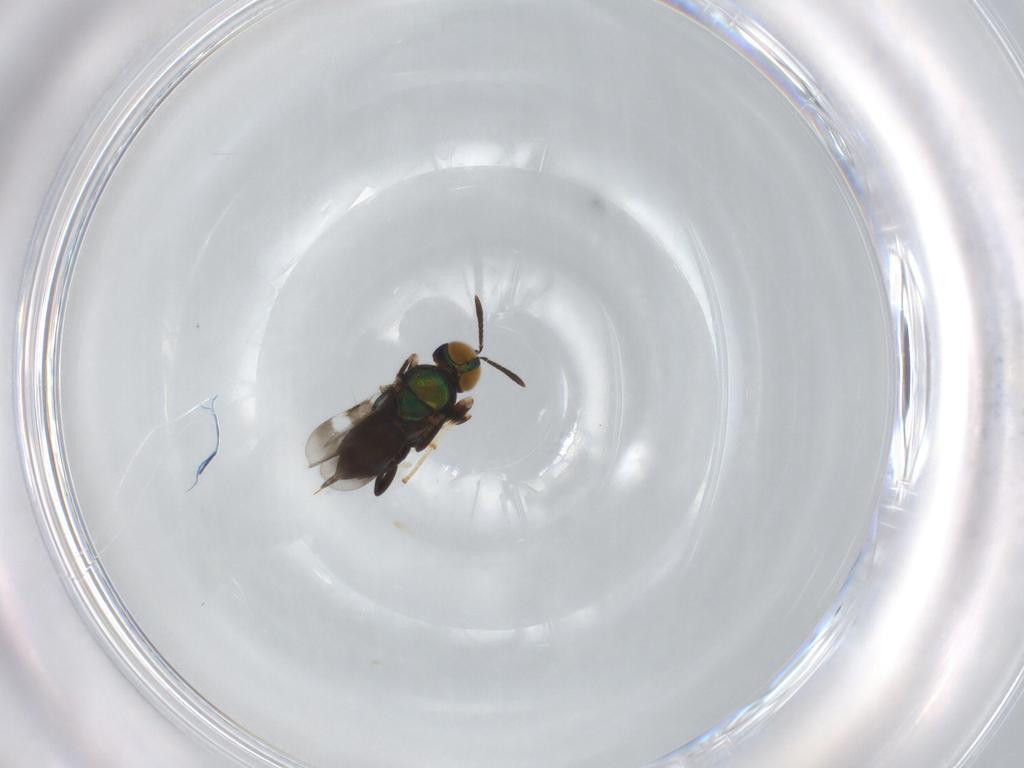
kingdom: Animalia
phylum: Arthropoda
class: Insecta
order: Hymenoptera
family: Encyrtidae
